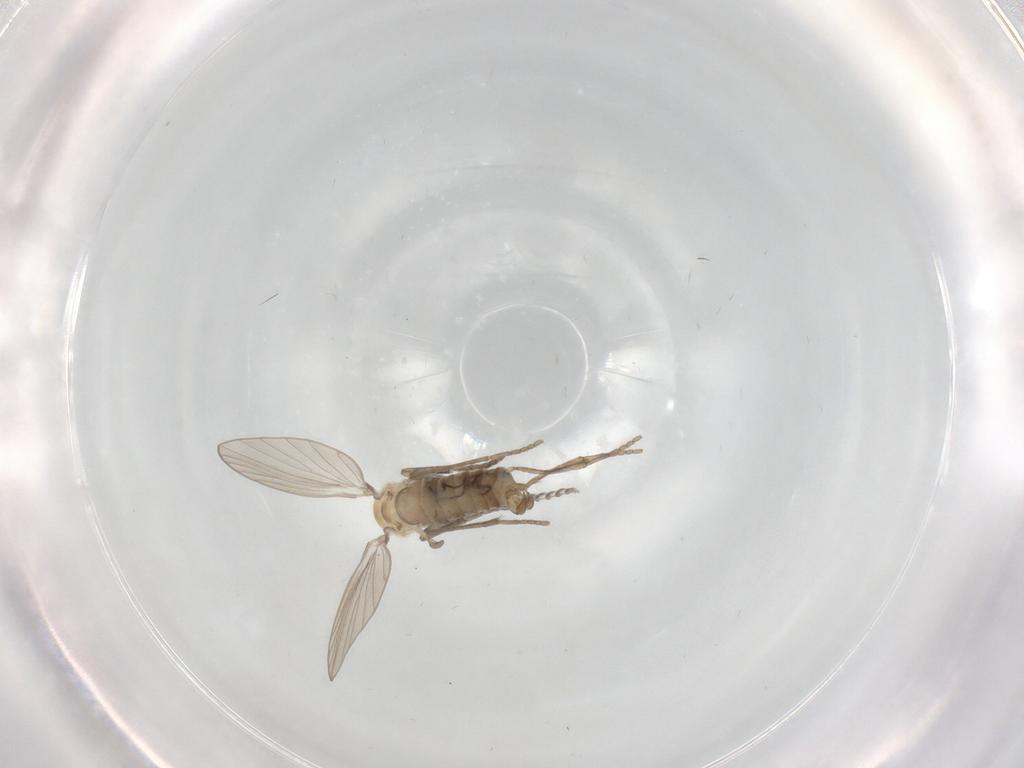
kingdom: Animalia
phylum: Arthropoda
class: Insecta
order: Diptera
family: Psychodidae
